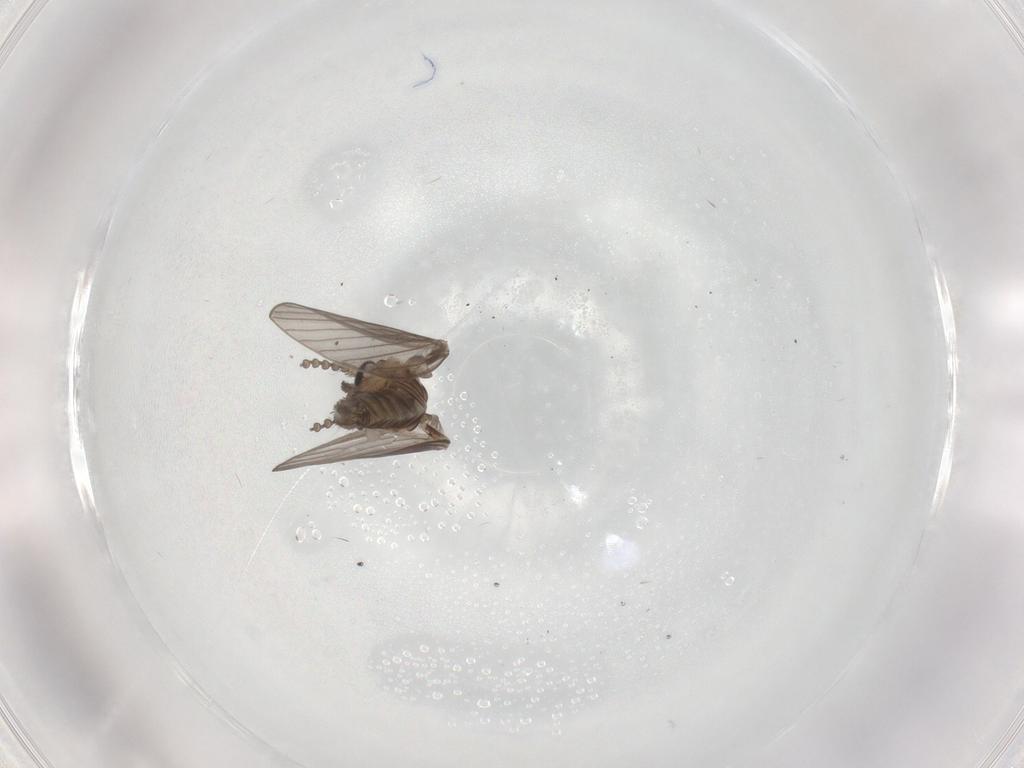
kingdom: Animalia
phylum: Arthropoda
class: Insecta
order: Diptera
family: Psychodidae
